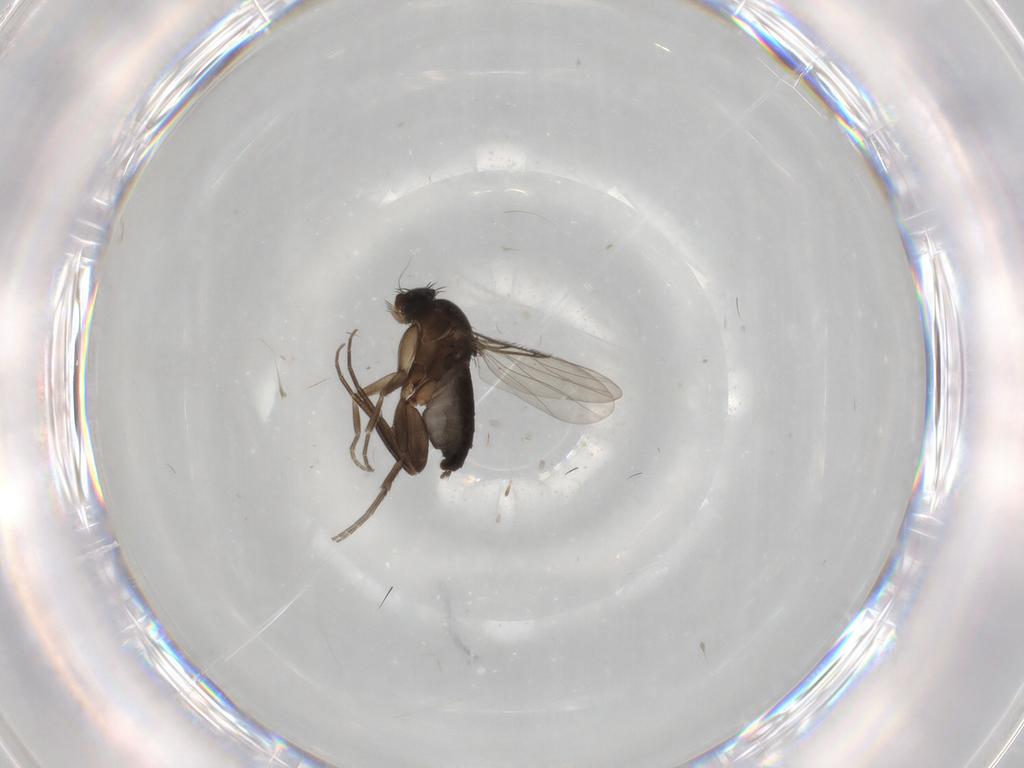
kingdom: Animalia
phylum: Arthropoda
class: Insecta
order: Diptera
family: Phoridae
